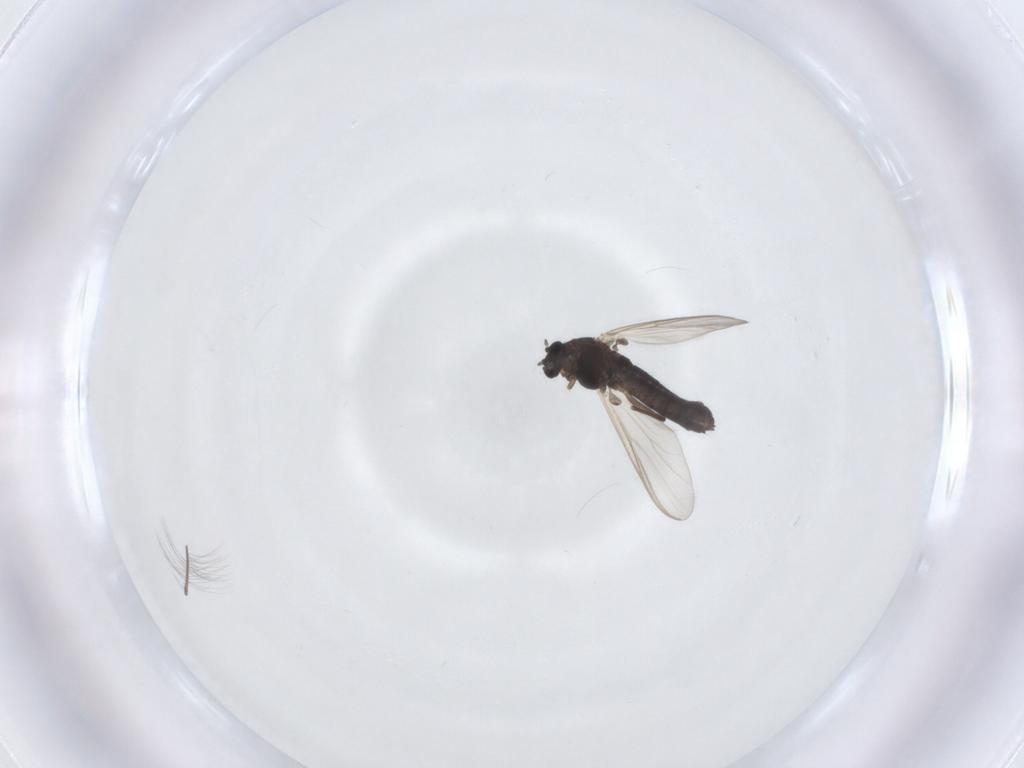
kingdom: Animalia
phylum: Arthropoda
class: Insecta
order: Diptera
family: Chironomidae
